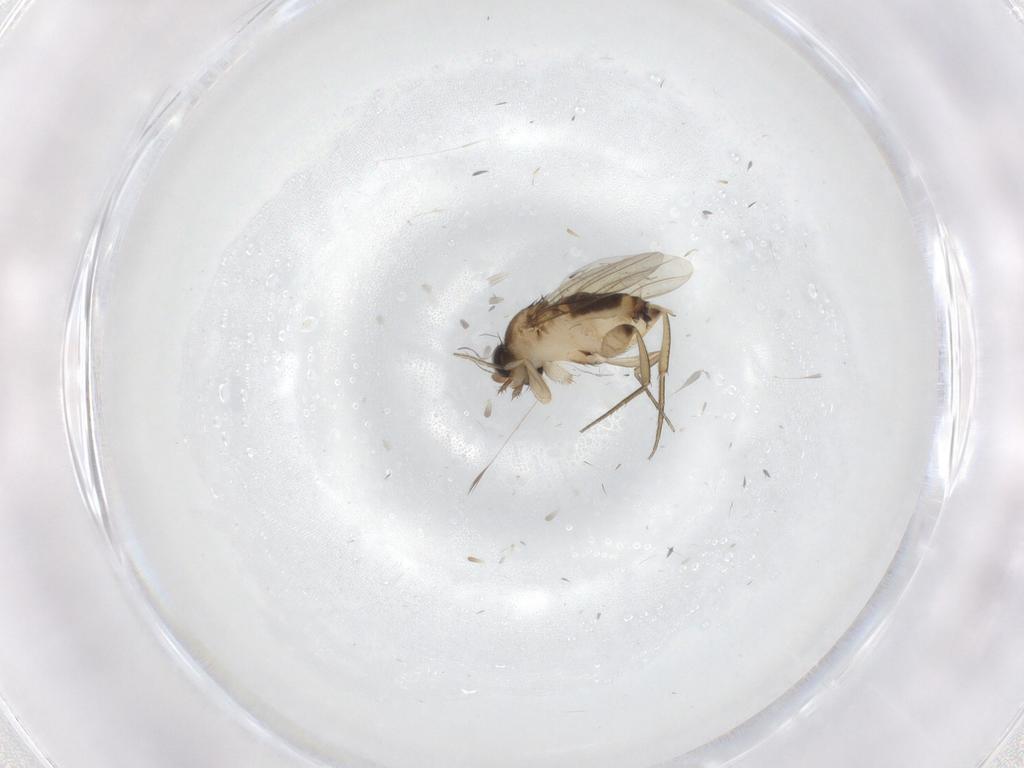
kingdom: Animalia
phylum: Arthropoda
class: Insecta
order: Diptera
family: Phoridae
